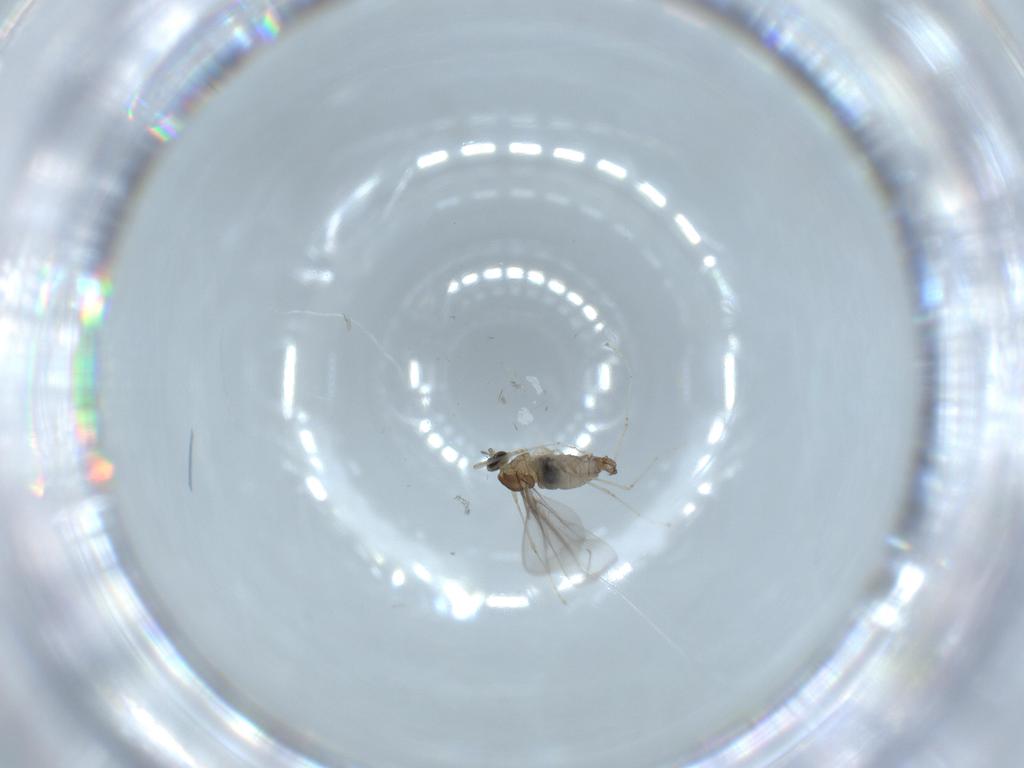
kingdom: Animalia
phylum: Arthropoda
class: Insecta
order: Diptera
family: Cecidomyiidae
